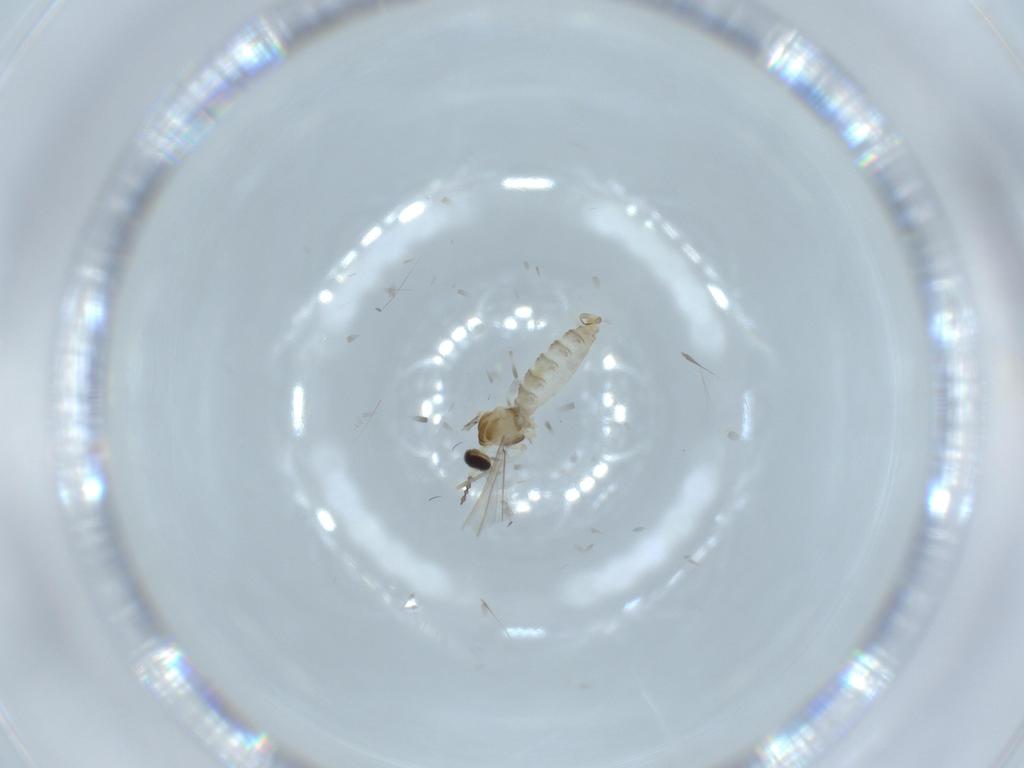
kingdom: Animalia
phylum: Arthropoda
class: Insecta
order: Diptera
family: Cecidomyiidae
